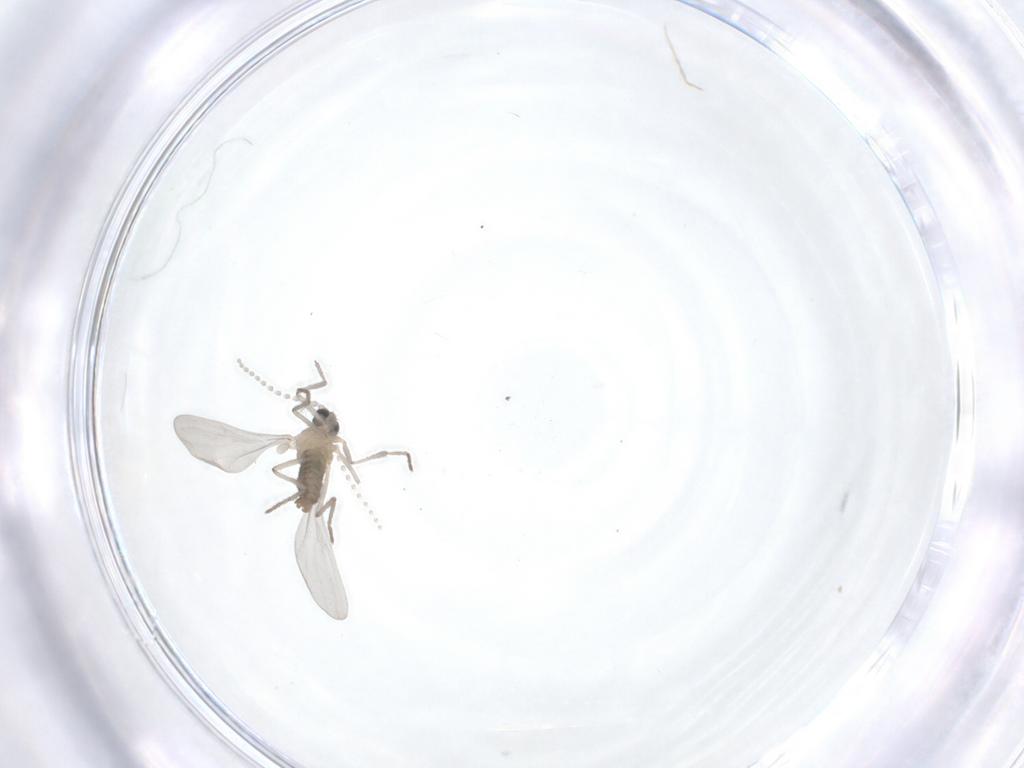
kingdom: Animalia
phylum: Arthropoda
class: Insecta
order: Diptera
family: Cecidomyiidae
